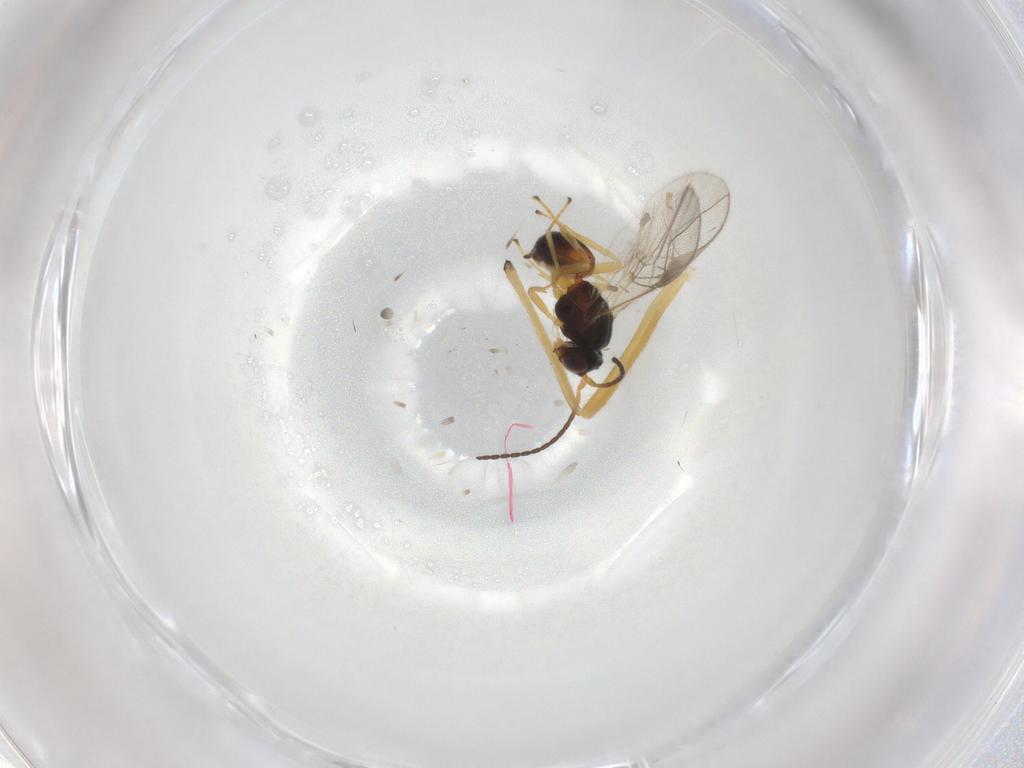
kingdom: Animalia
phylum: Arthropoda
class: Insecta
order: Hymenoptera
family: Braconidae
